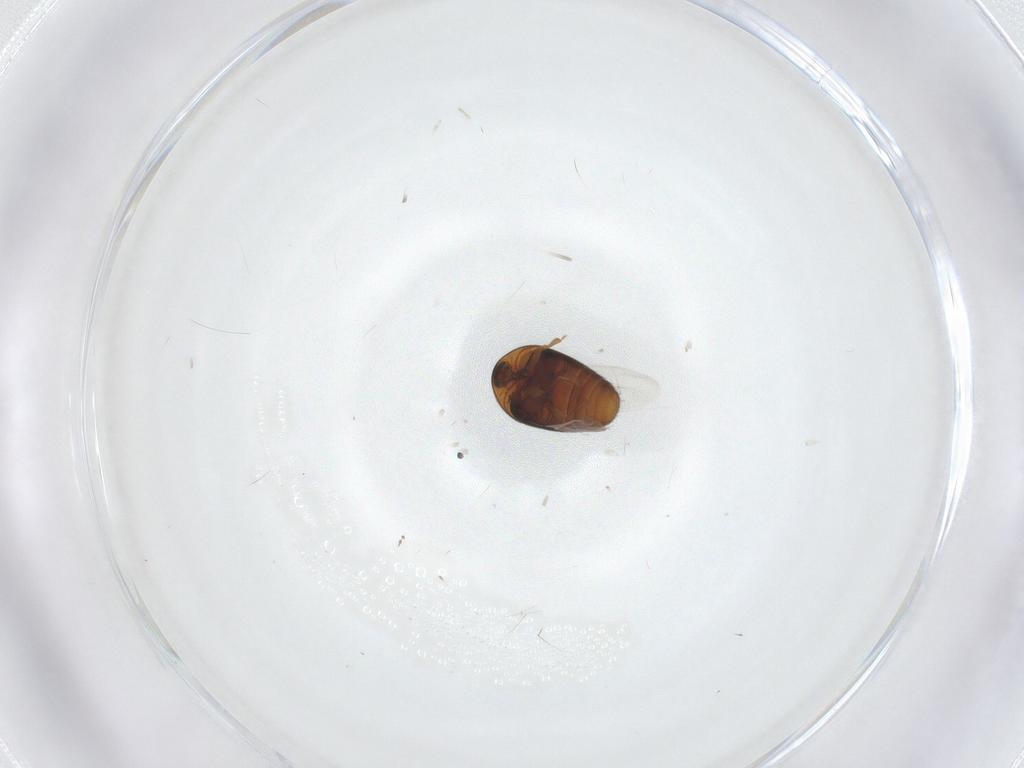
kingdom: Animalia
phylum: Arthropoda
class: Insecta
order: Coleoptera
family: Corylophidae
